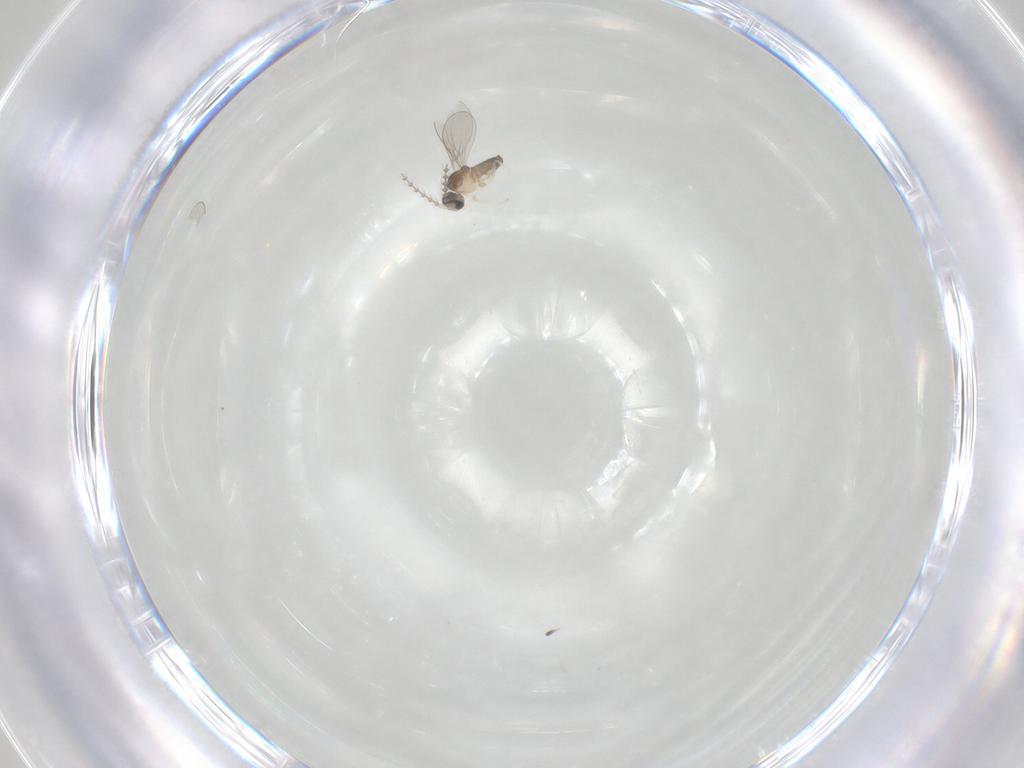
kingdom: Animalia
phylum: Arthropoda
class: Insecta
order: Diptera
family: Cecidomyiidae
